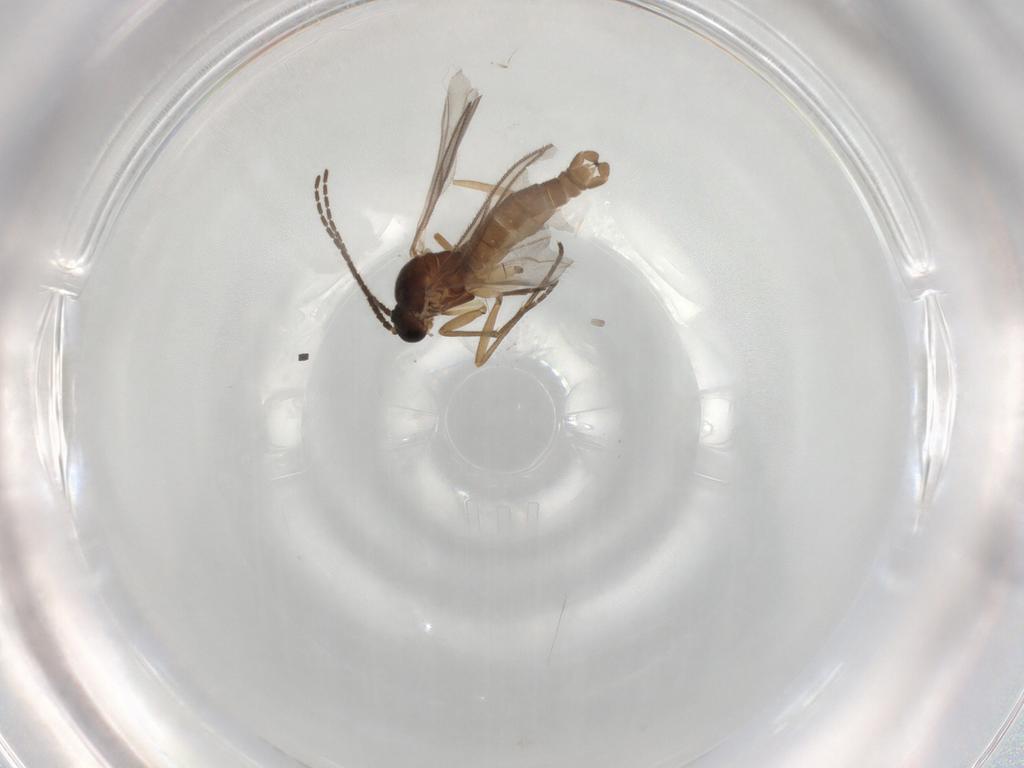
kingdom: Animalia
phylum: Arthropoda
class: Insecta
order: Diptera
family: Sciaridae
